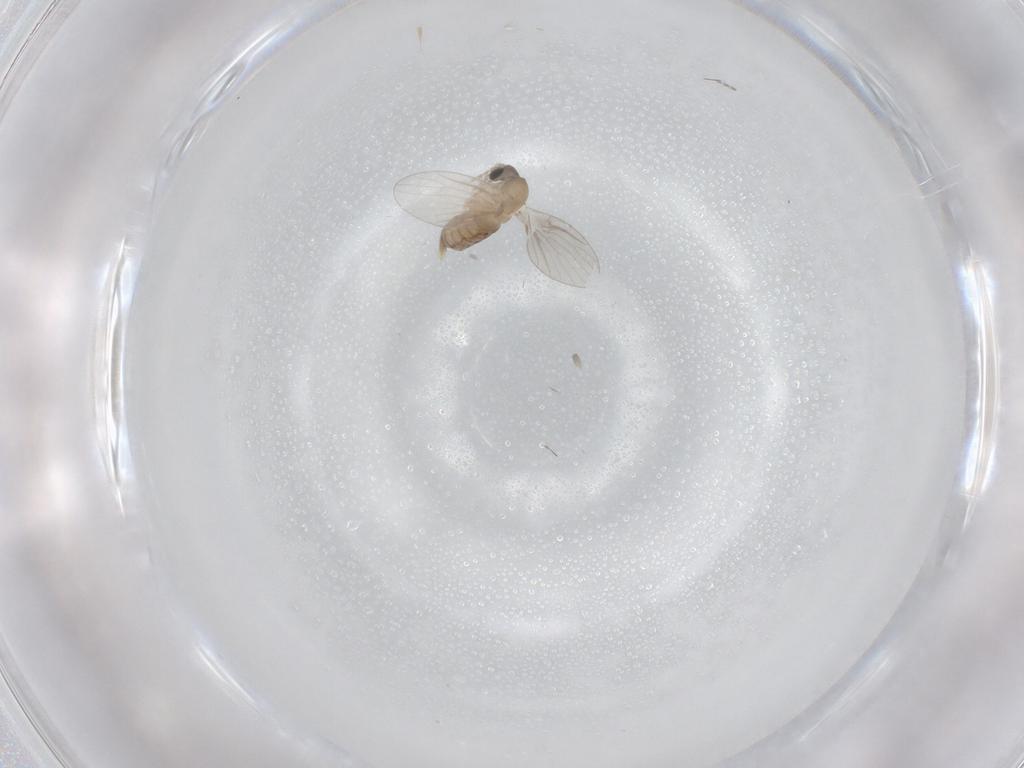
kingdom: Animalia
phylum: Arthropoda
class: Insecta
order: Diptera
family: Psychodidae
